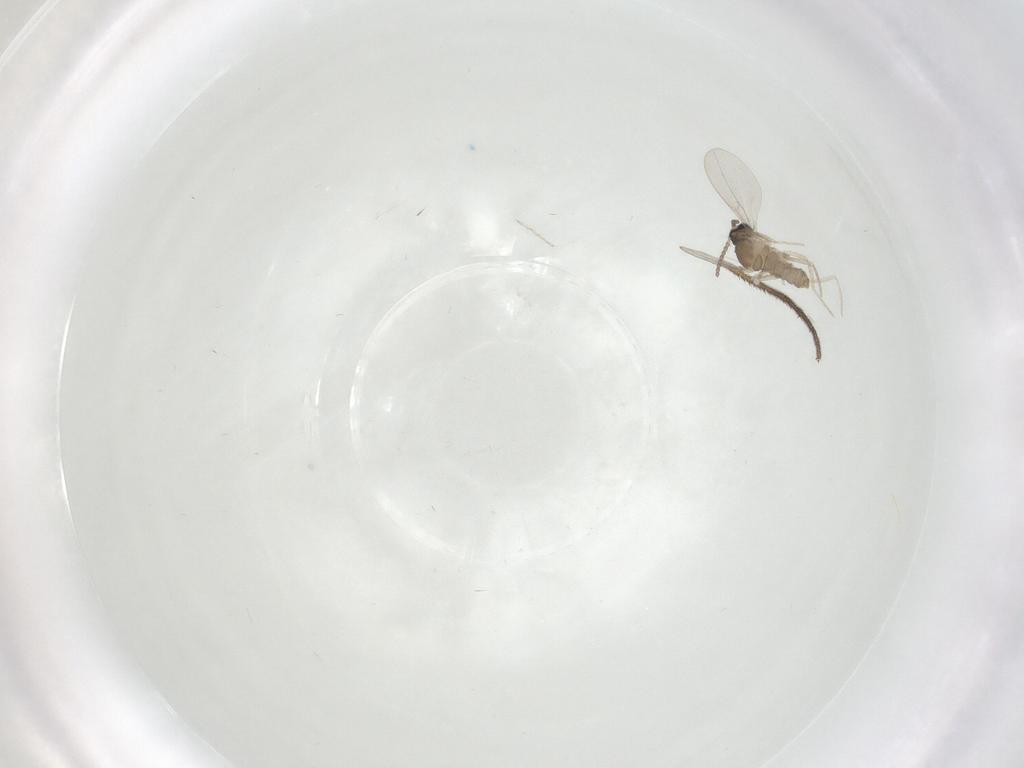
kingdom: Animalia
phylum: Arthropoda
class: Insecta
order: Diptera
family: Cecidomyiidae
